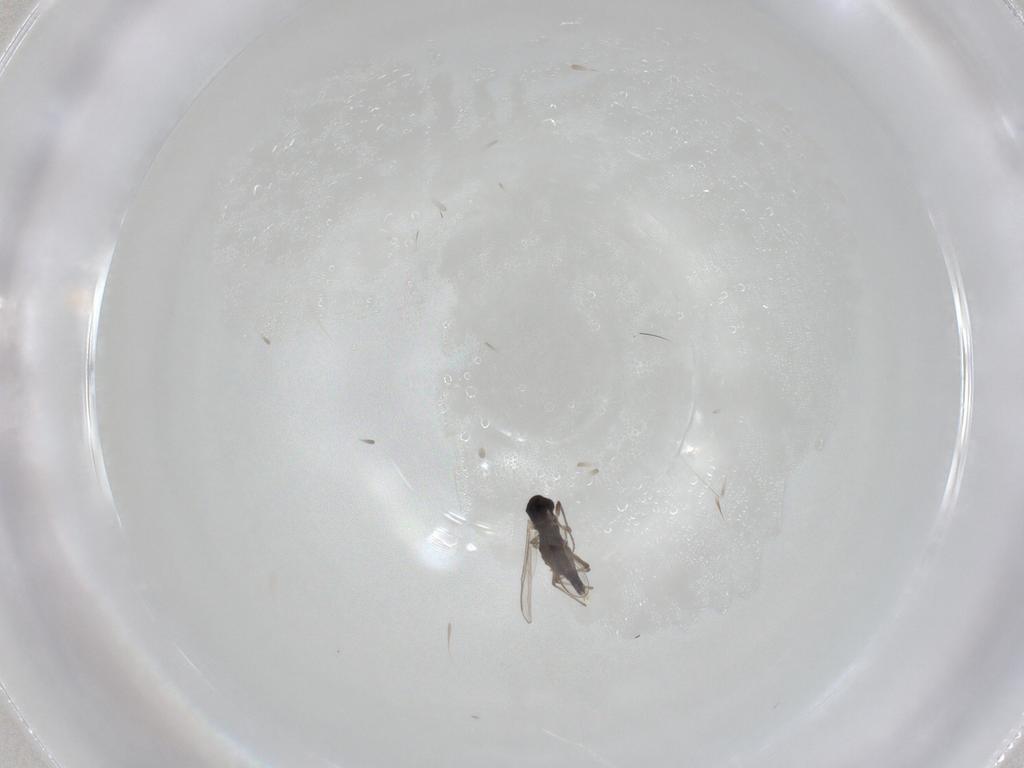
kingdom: Animalia
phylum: Arthropoda
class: Insecta
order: Diptera
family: Chironomidae
